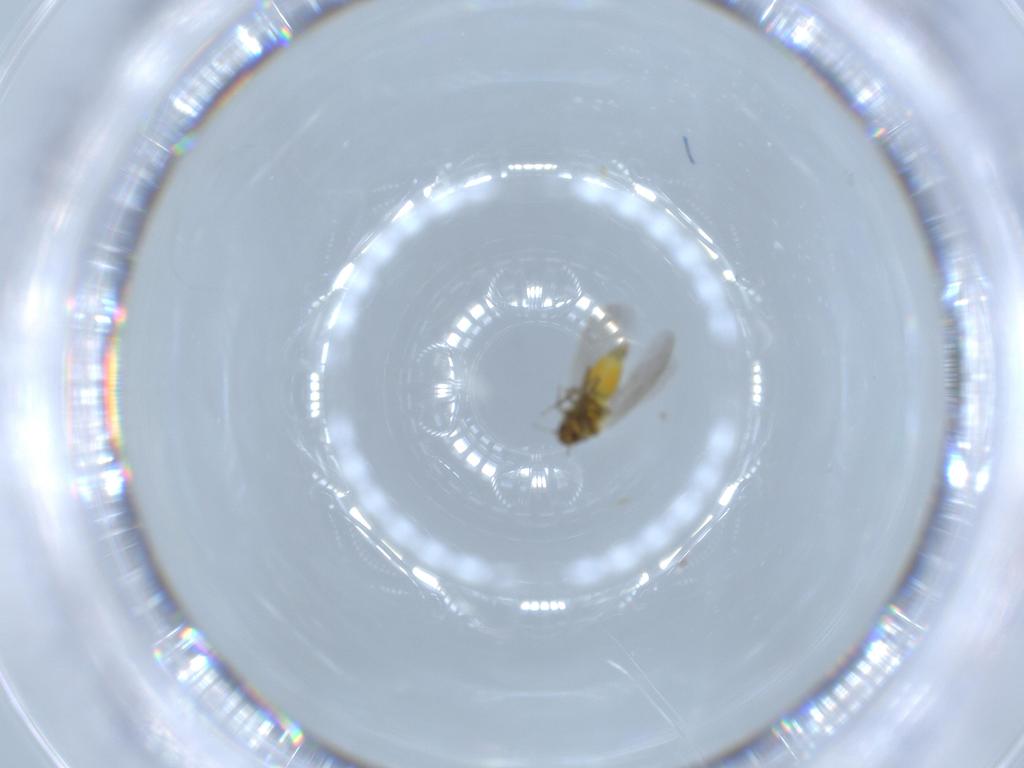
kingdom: Animalia
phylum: Arthropoda
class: Insecta
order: Hemiptera
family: Aleyrodidae
